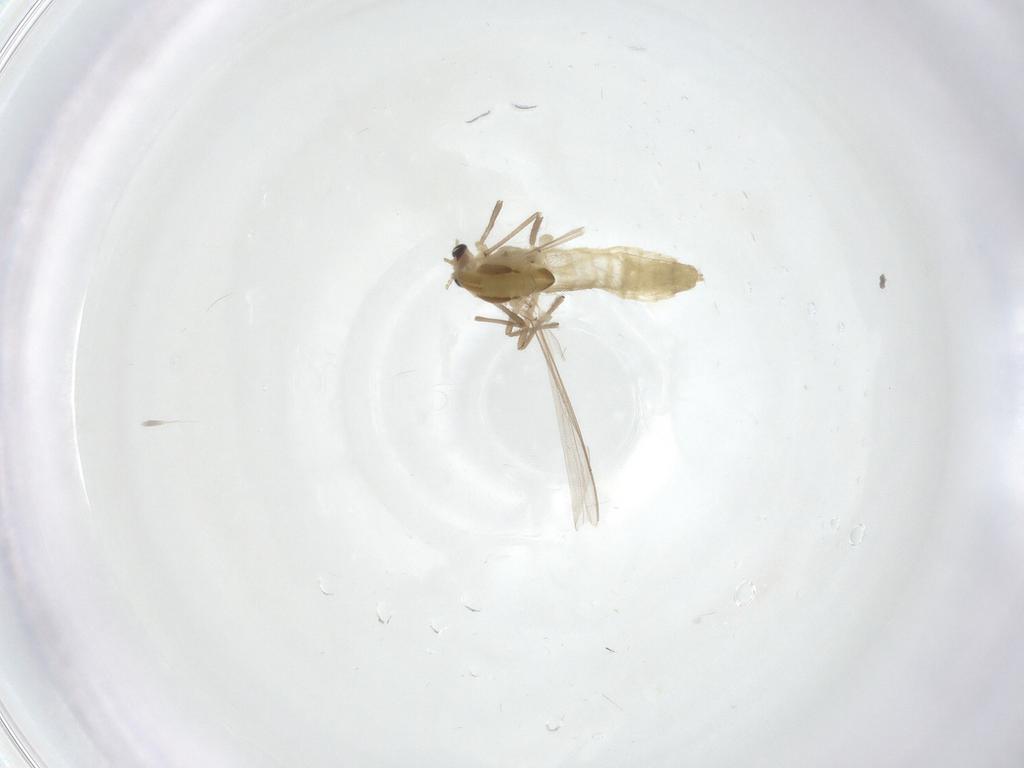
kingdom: Animalia
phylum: Arthropoda
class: Insecta
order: Diptera
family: Chironomidae
